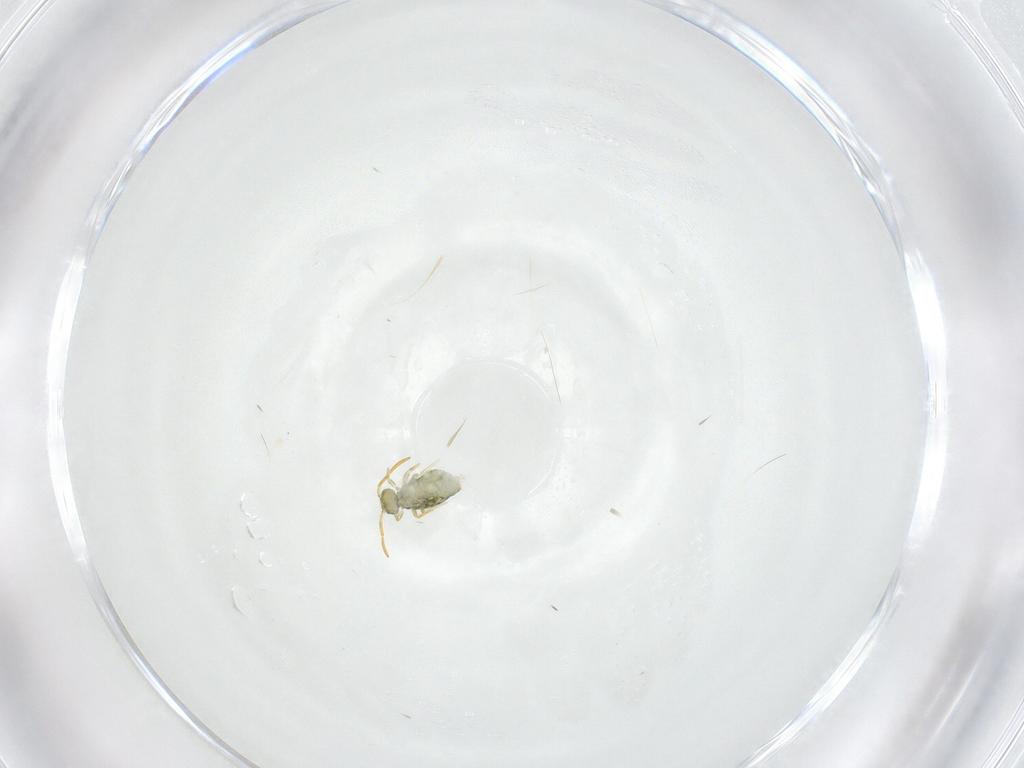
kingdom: Animalia
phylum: Arthropoda
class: Collembola
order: Symphypleona
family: Katiannidae
